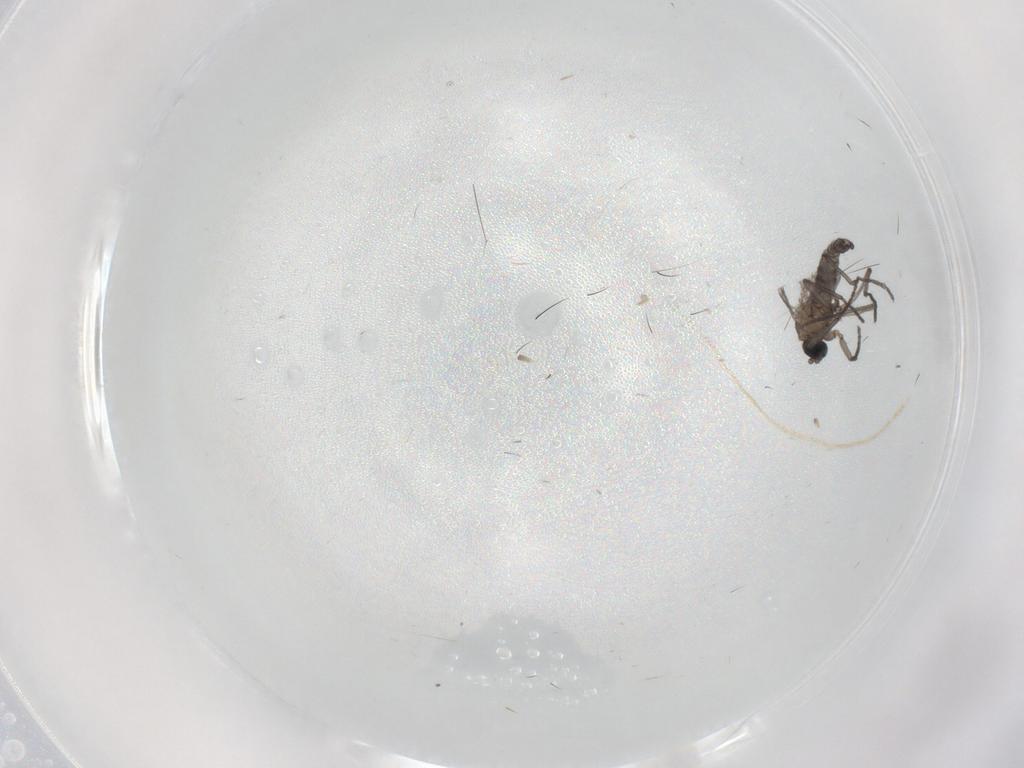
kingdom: Animalia
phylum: Arthropoda
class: Insecta
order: Diptera
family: Sciaridae
